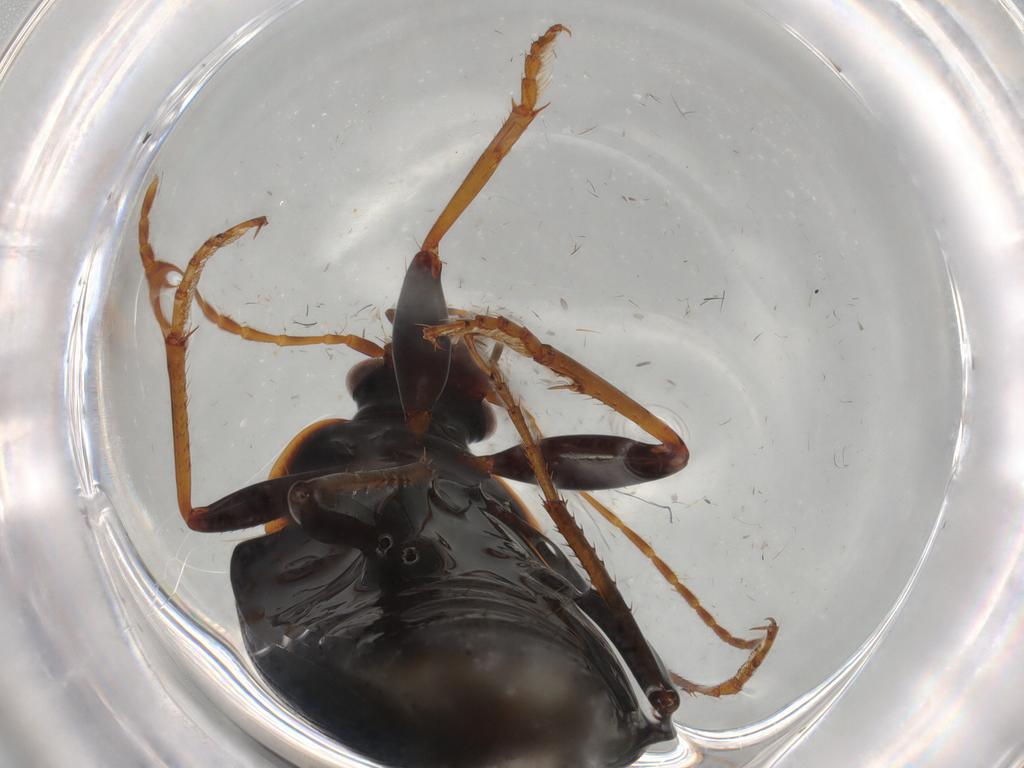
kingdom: Animalia
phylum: Arthropoda
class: Insecta
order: Coleoptera
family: Carabidae
